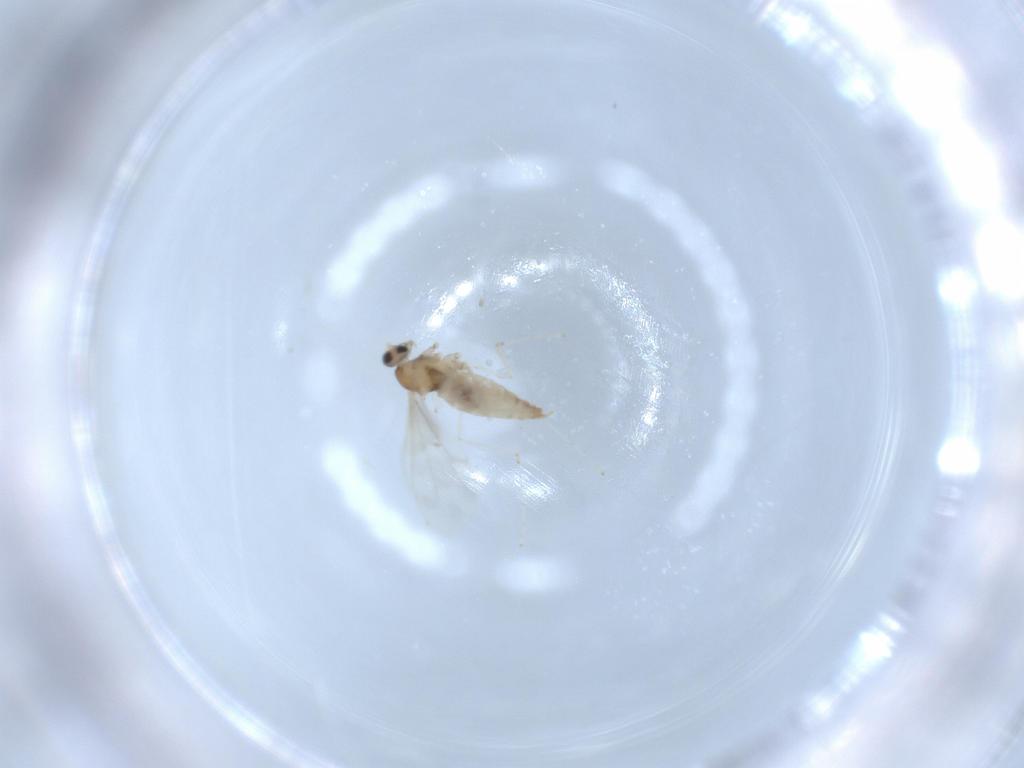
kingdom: Animalia
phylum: Arthropoda
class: Insecta
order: Diptera
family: Cecidomyiidae
